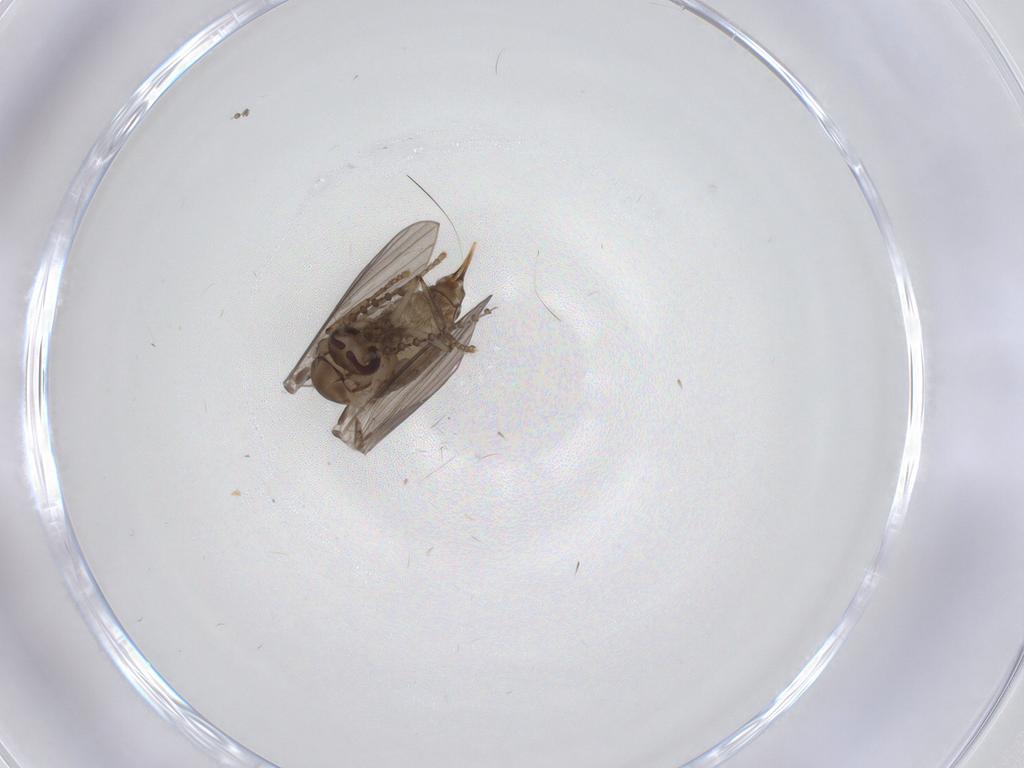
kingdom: Animalia
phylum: Arthropoda
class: Insecta
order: Diptera
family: Psychodidae
